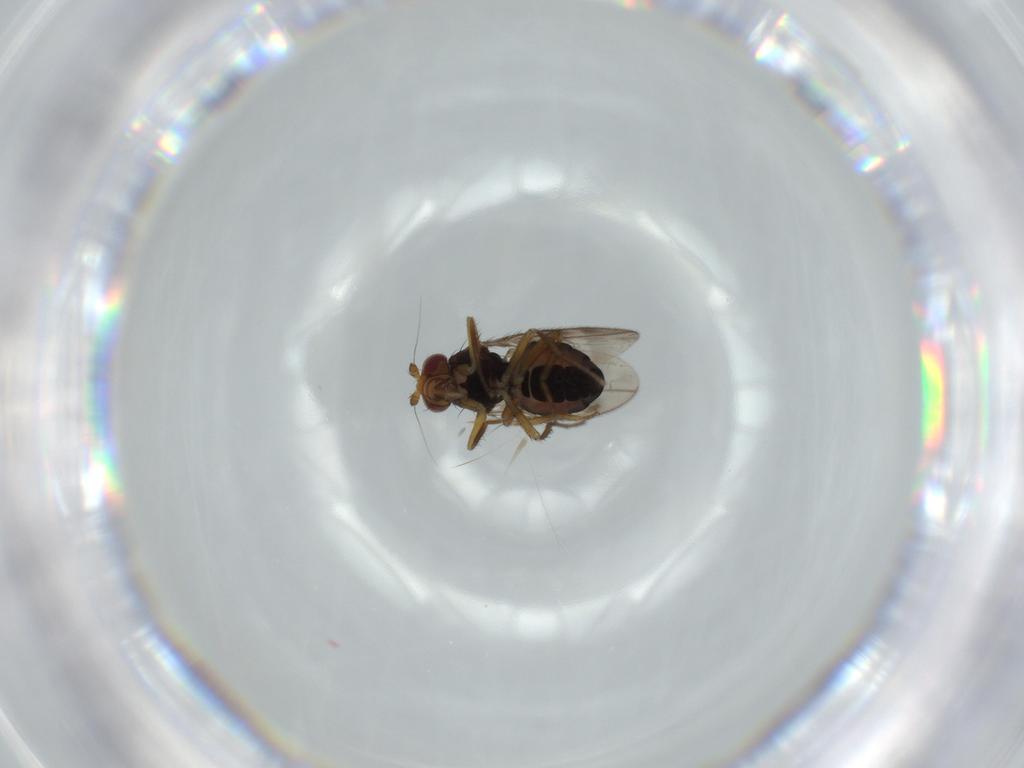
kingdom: Animalia
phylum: Arthropoda
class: Insecta
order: Diptera
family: Sphaeroceridae
